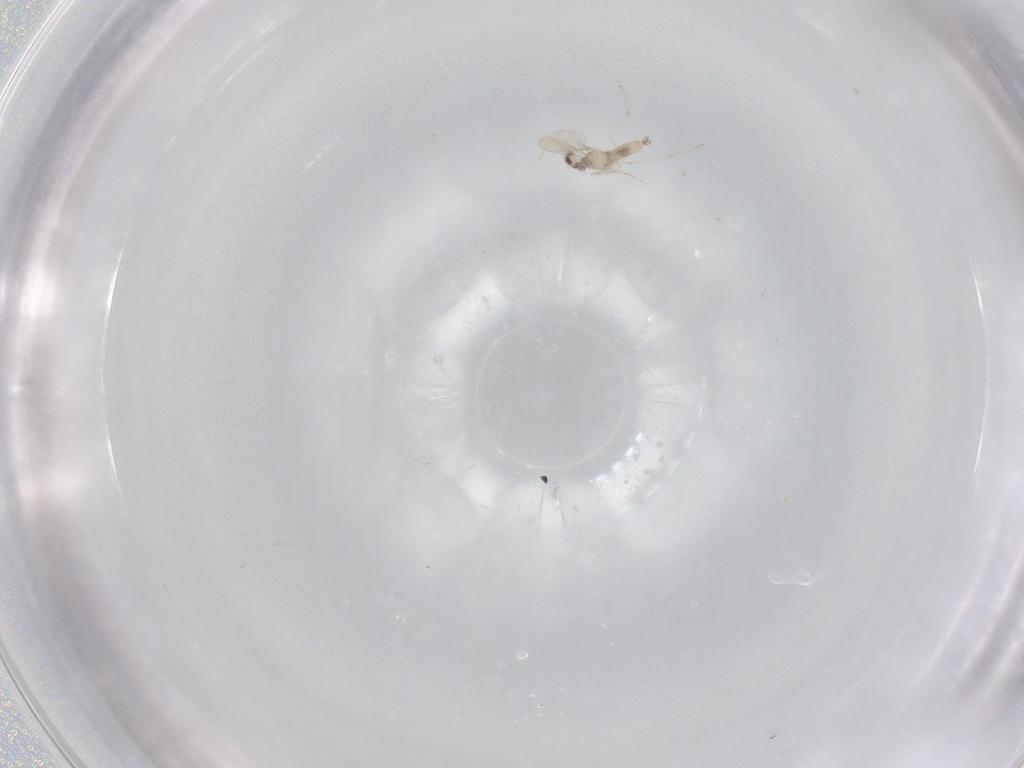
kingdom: Animalia
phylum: Arthropoda
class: Insecta
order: Diptera
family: Cecidomyiidae
